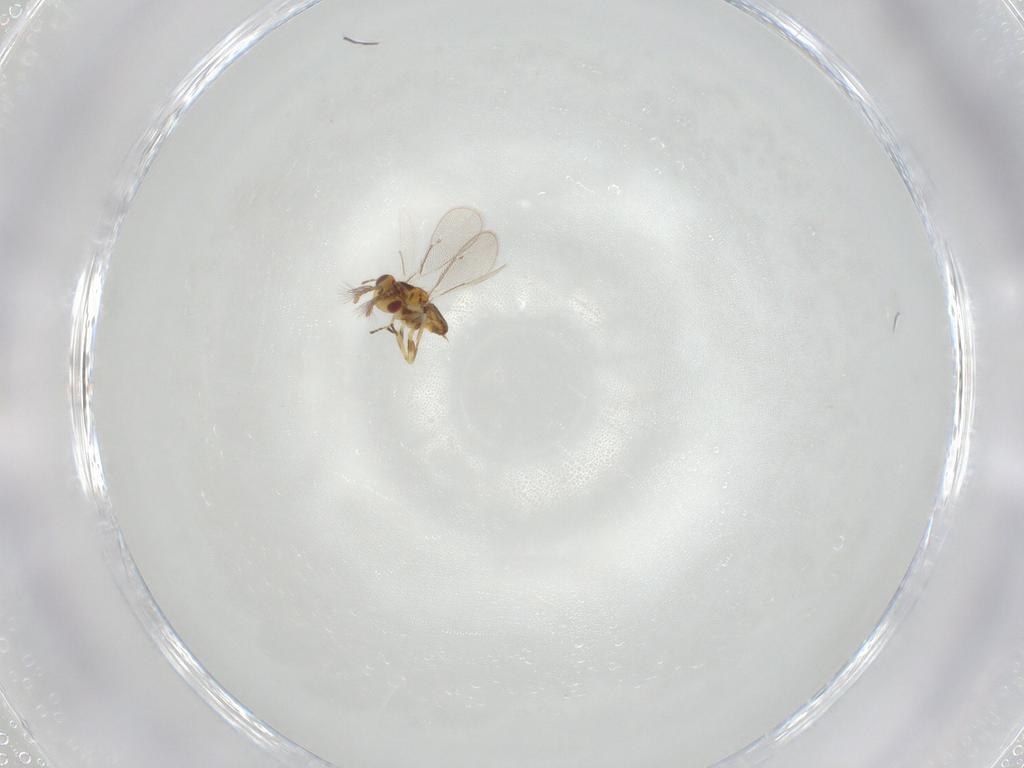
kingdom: Animalia
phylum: Arthropoda
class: Insecta
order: Hymenoptera
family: Eulophidae
